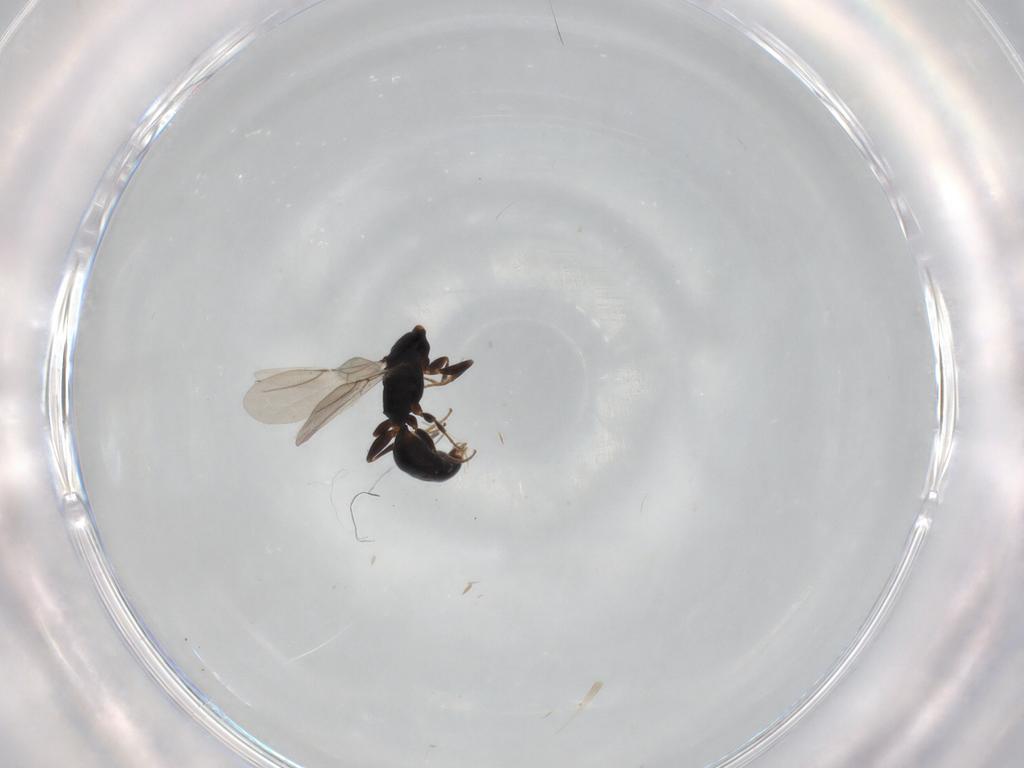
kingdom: Animalia
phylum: Arthropoda
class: Insecta
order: Hymenoptera
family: Bethylidae
